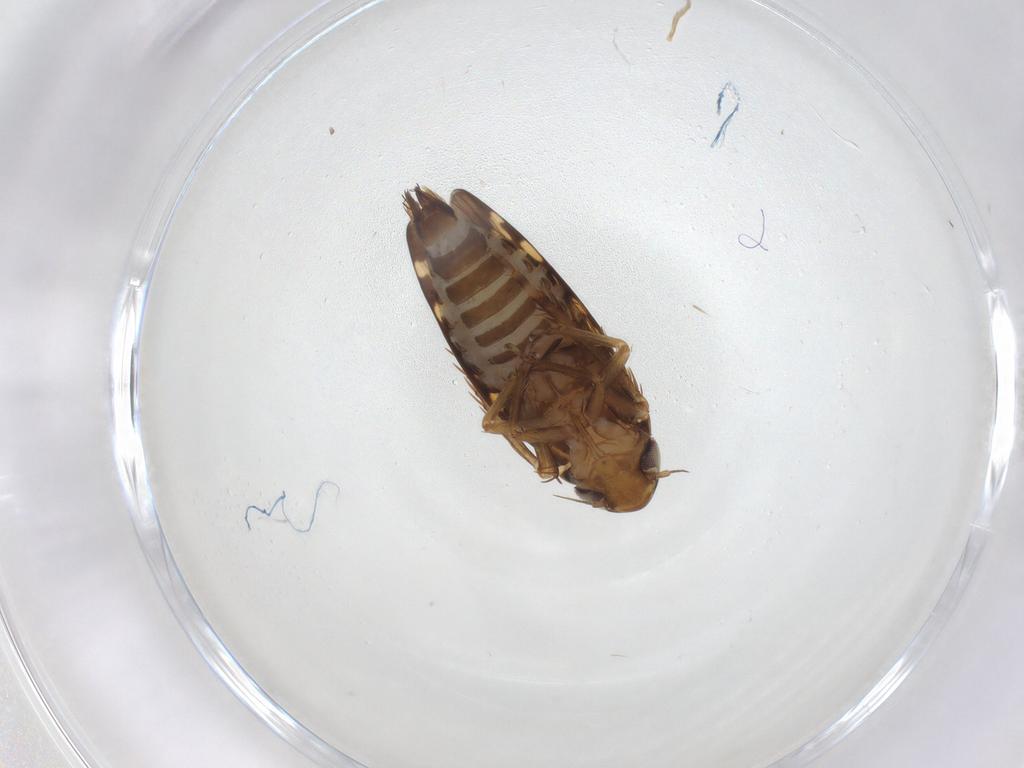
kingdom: Animalia
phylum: Arthropoda
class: Insecta
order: Hemiptera
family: Cicadellidae
